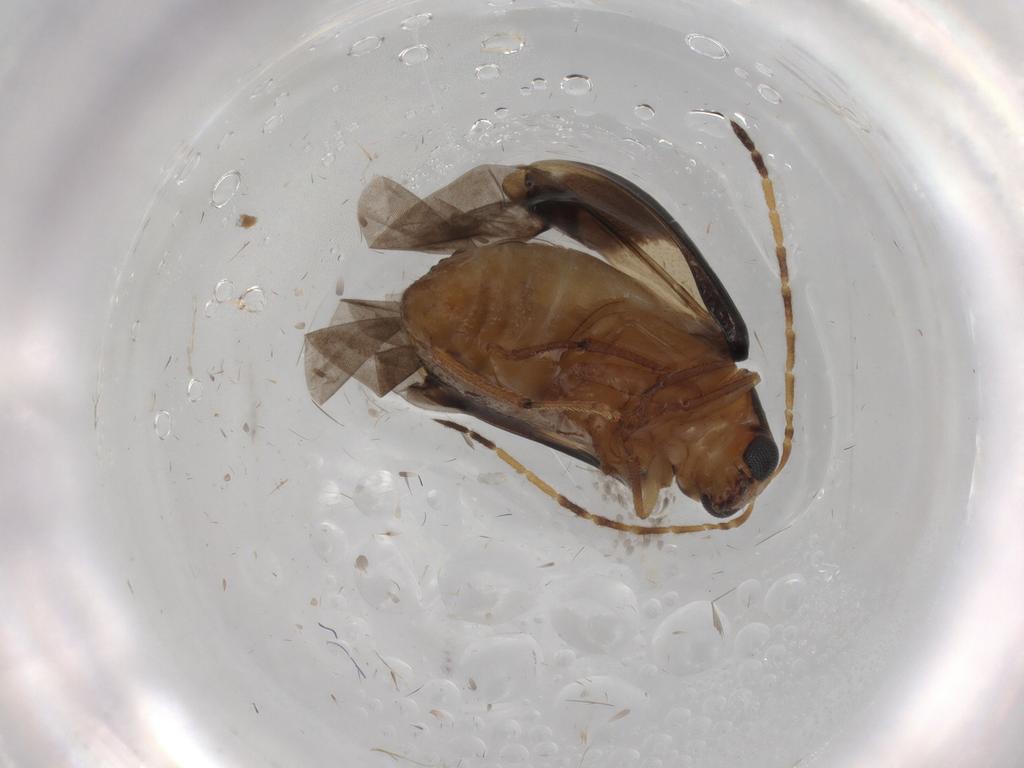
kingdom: Animalia
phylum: Arthropoda
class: Insecta
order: Coleoptera
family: Chrysomelidae
